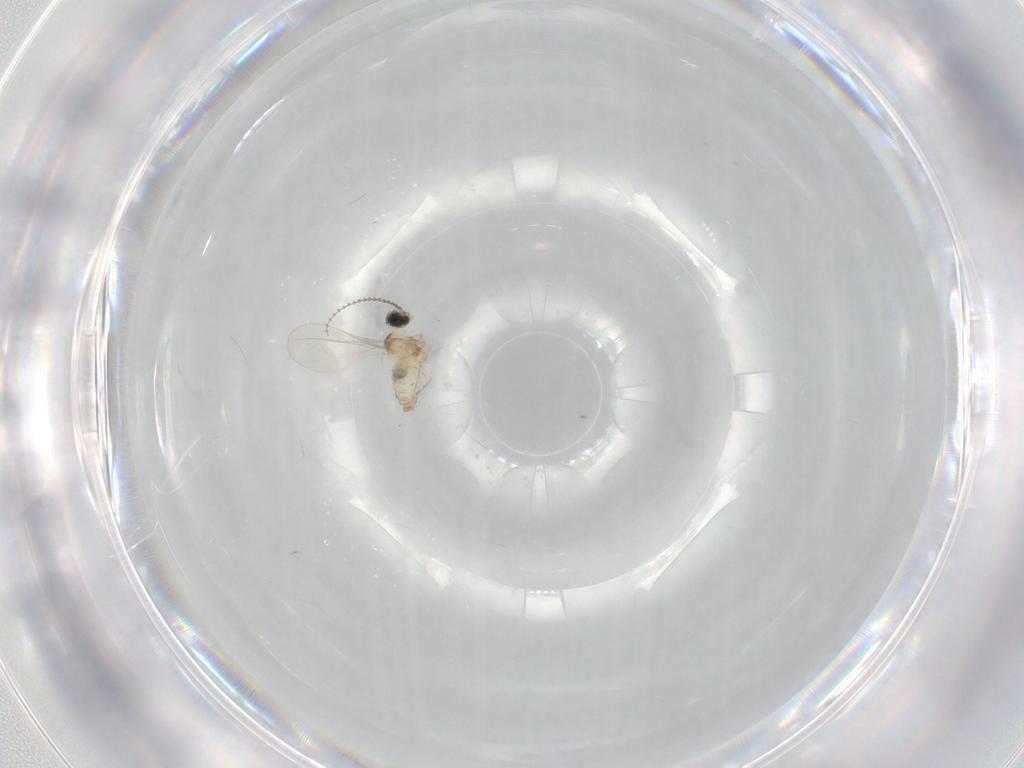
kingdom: Animalia
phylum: Arthropoda
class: Insecta
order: Diptera
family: Cecidomyiidae
